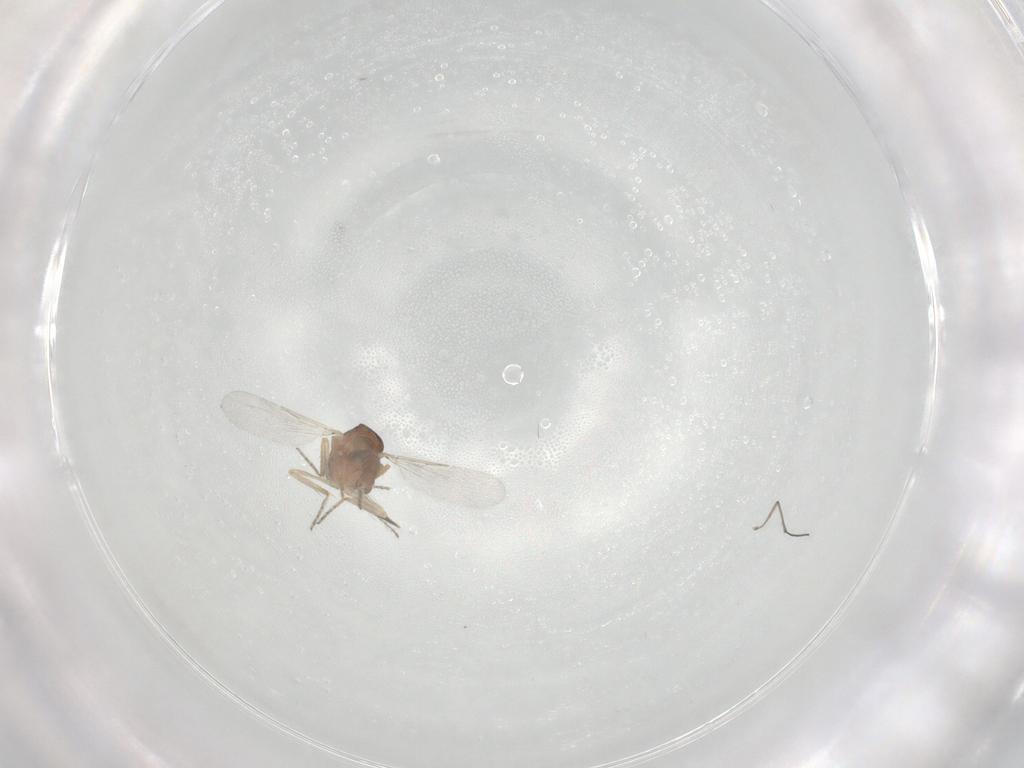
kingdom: Animalia
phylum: Arthropoda
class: Insecta
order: Diptera
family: Ceratopogonidae
